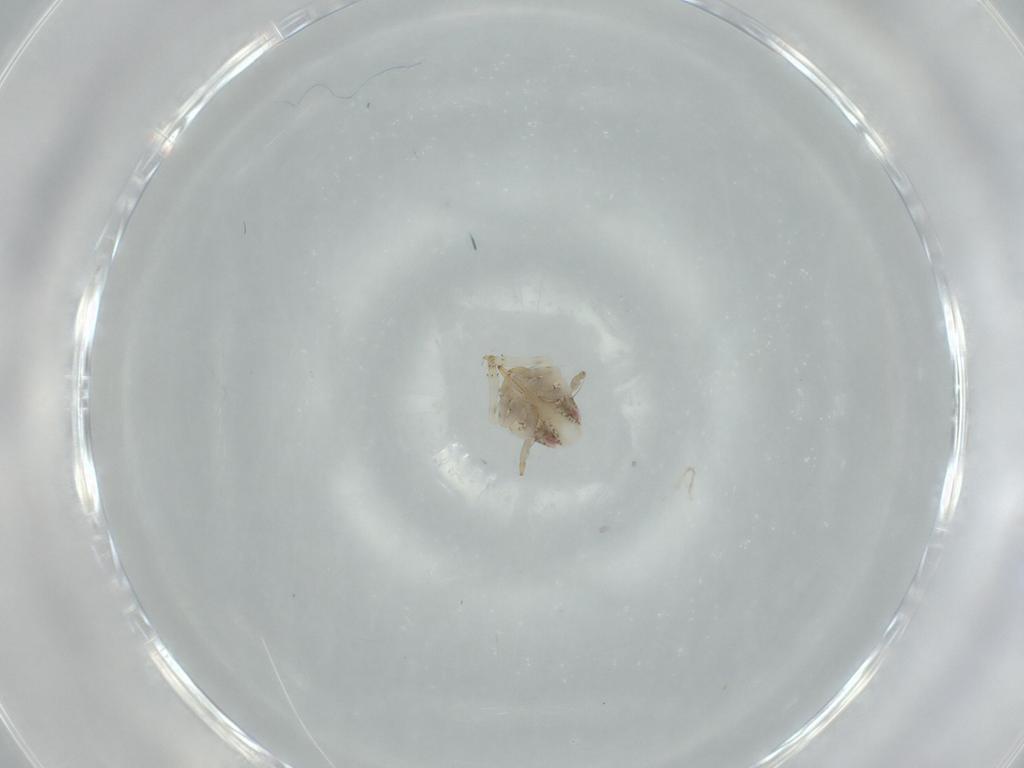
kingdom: Animalia
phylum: Arthropoda
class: Insecta
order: Hemiptera
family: Acanaloniidae
